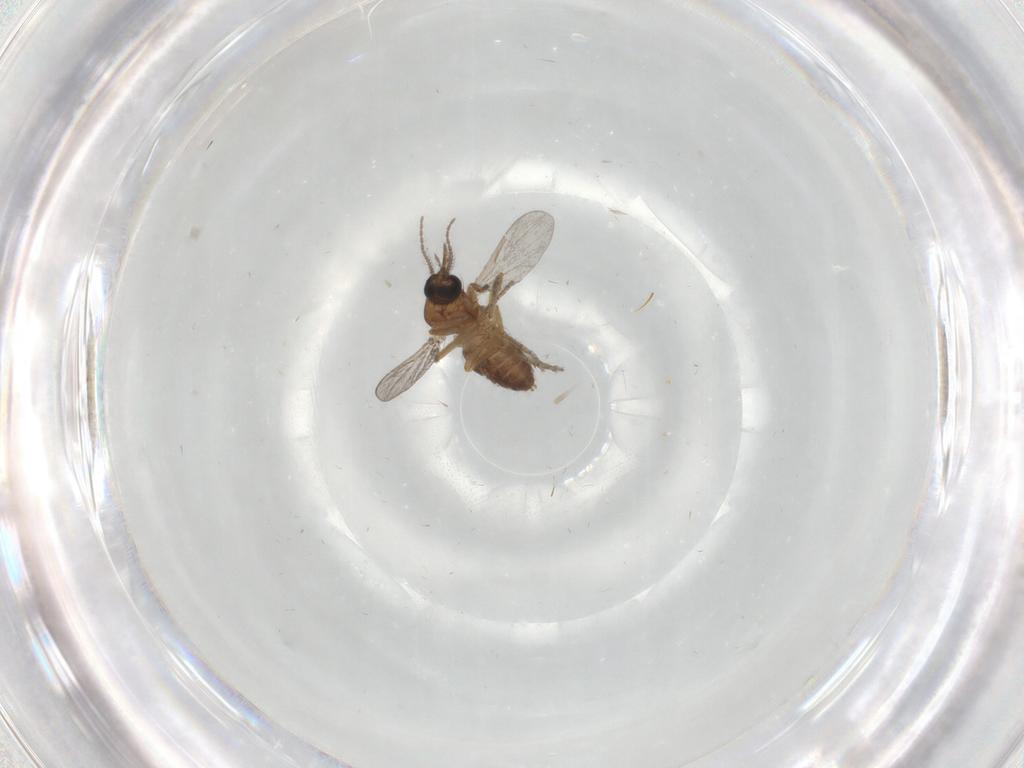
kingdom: Animalia
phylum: Arthropoda
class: Insecta
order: Diptera
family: Ceratopogonidae
